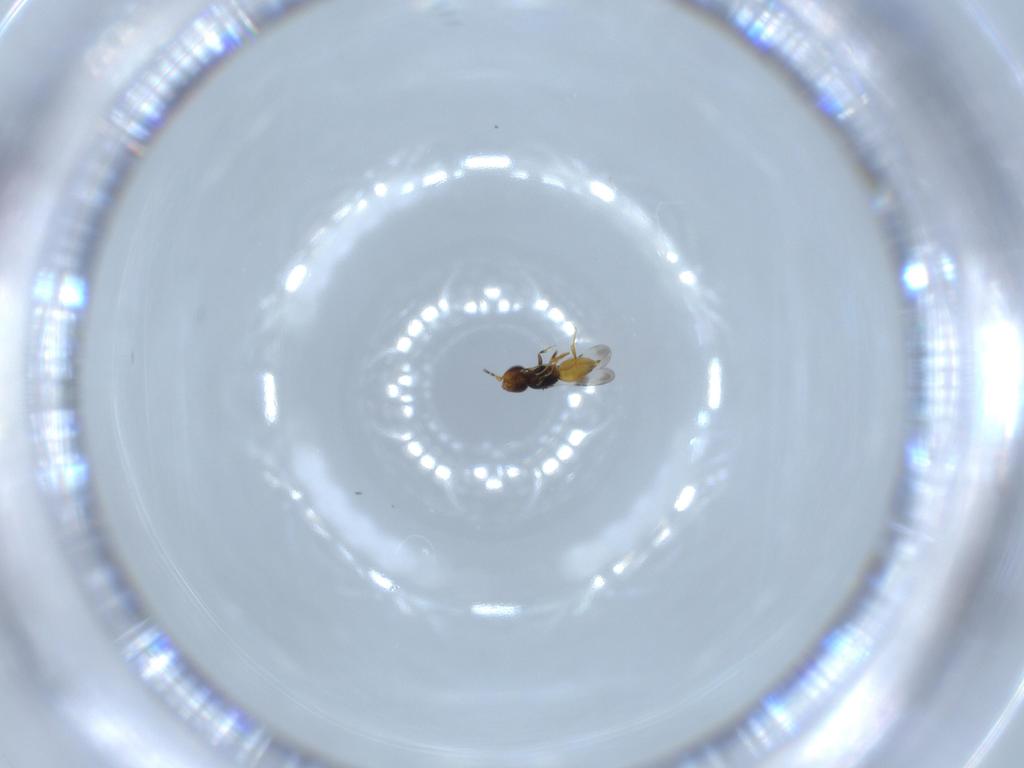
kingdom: Animalia
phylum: Arthropoda
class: Insecta
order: Hymenoptera
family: Formicidae
